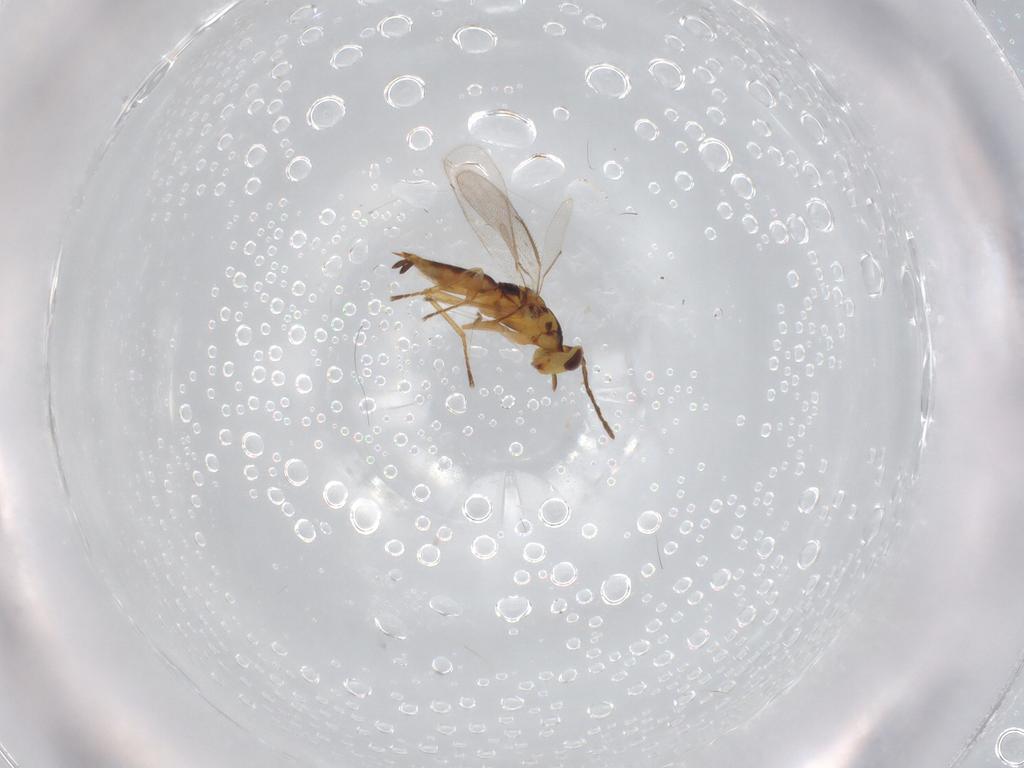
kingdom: Animalia
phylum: Arthropoda
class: Insecta
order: Hymenoptera
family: Eulophidae
